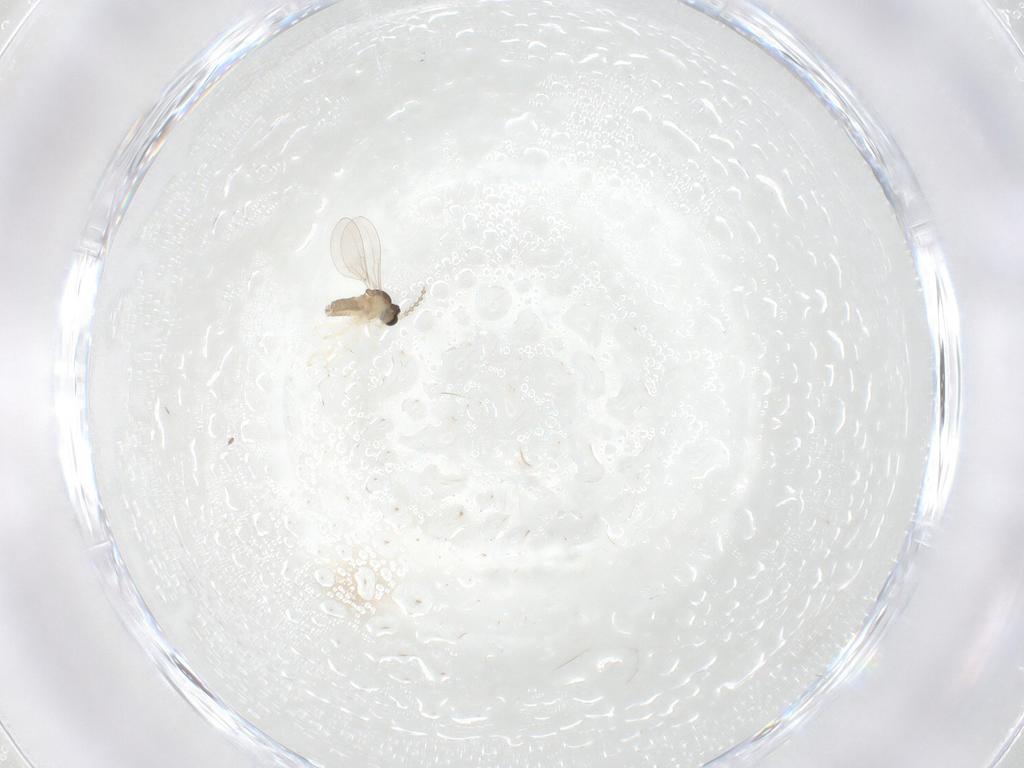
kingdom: Animalia
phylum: Arthropoda
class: Insecta
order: Diptera
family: Cecidomyiidae
